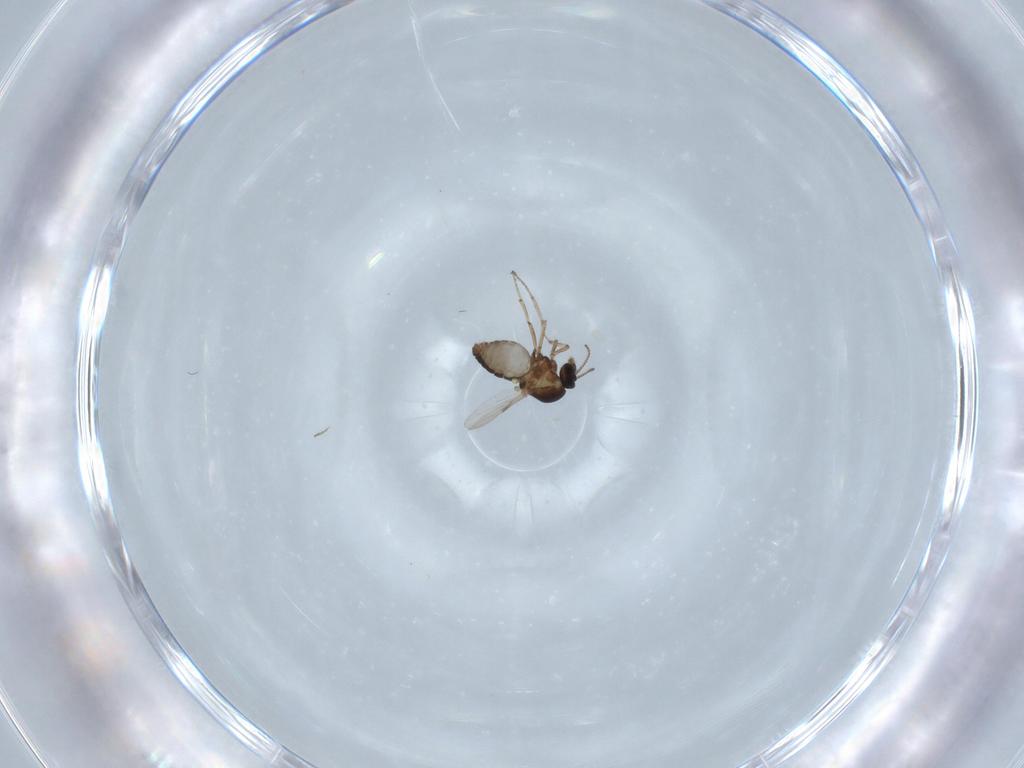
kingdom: Animalia
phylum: Arthropoda
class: Insecta
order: Diptera
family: Ceratopogonidae
